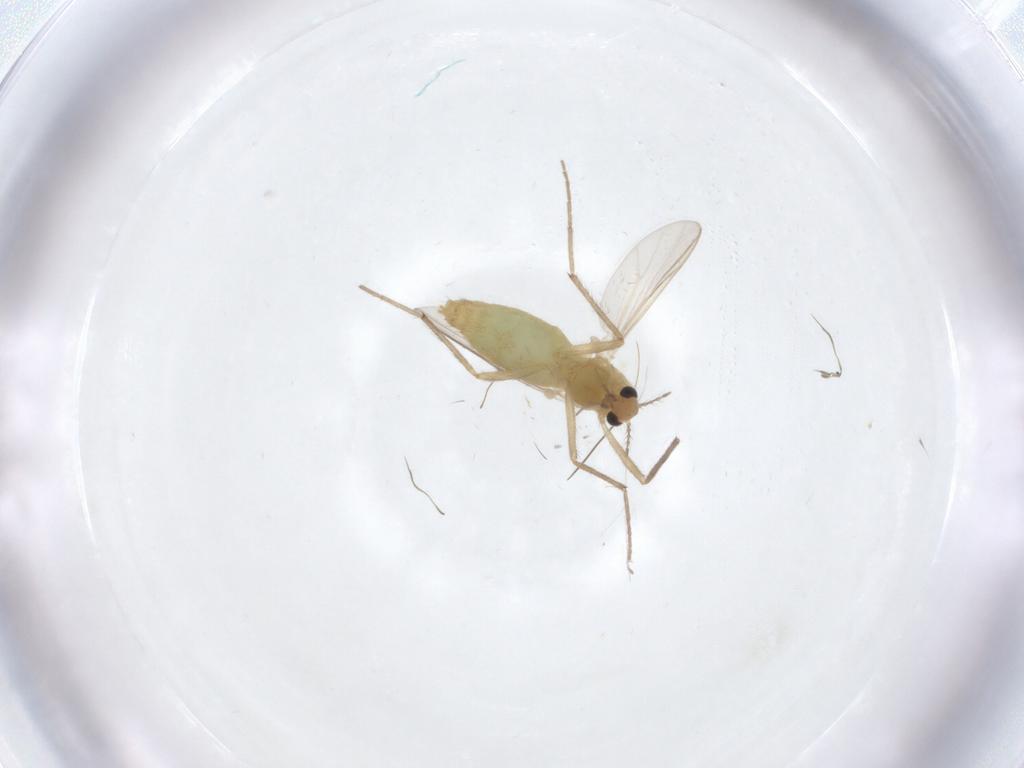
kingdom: Animalia
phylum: Arthropoda
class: Insecta
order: Diptera
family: Chironomidae
